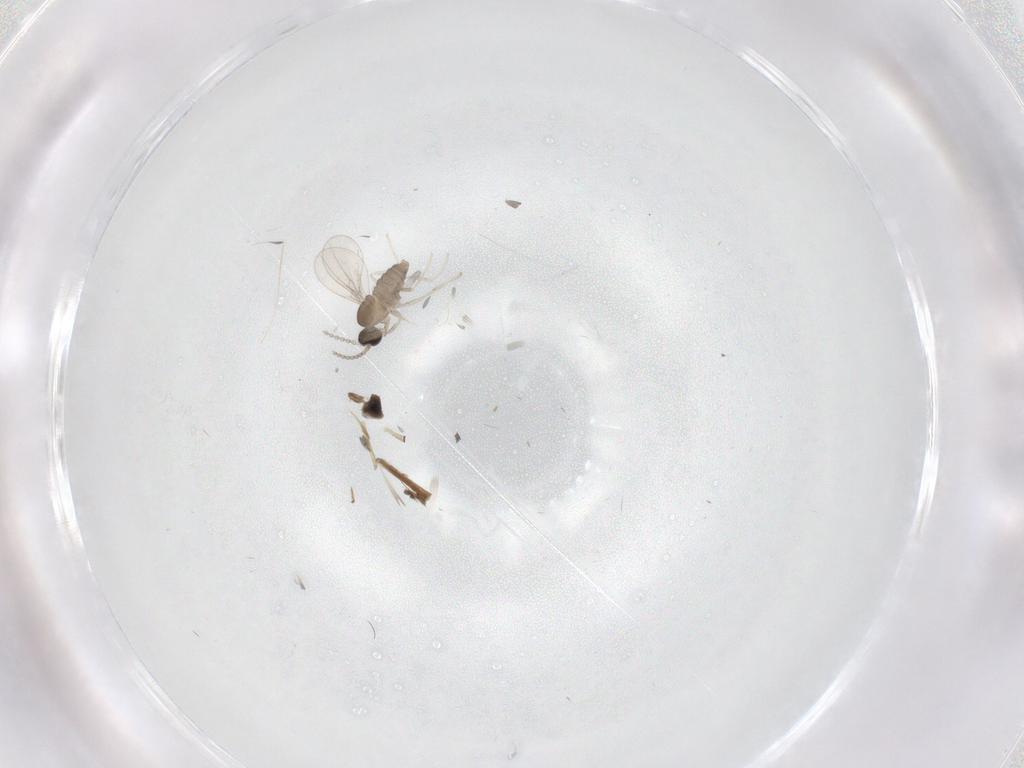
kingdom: Animalia
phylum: Arthropoda
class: Insecta
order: Diptera
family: Cecidomyiidae
